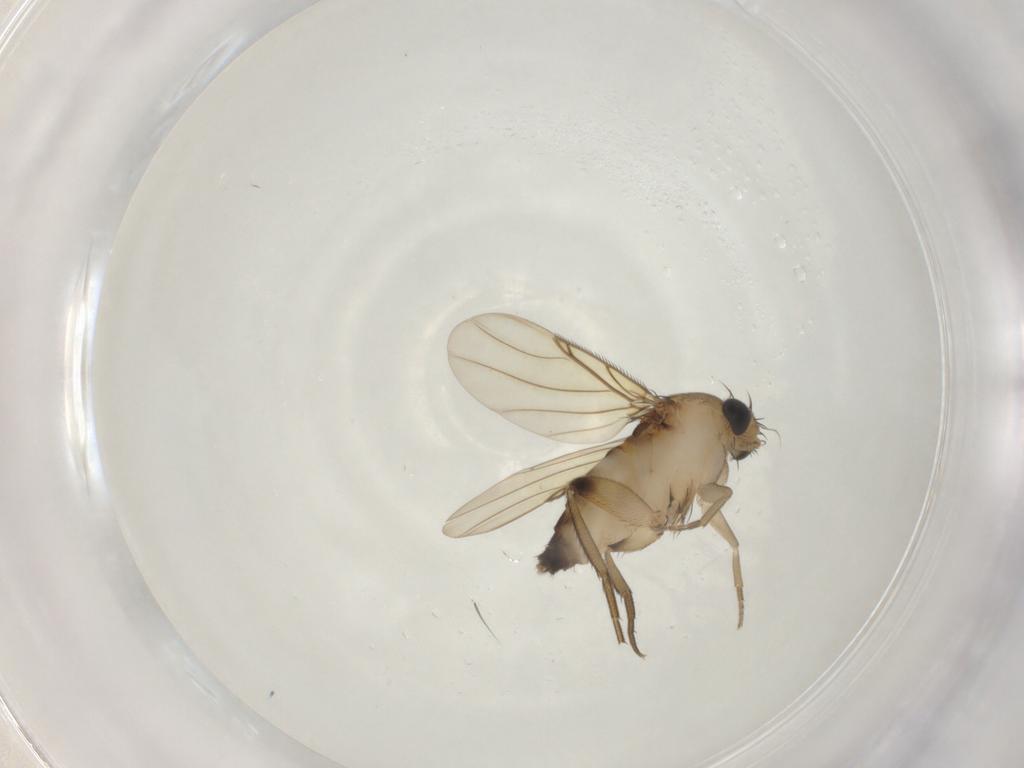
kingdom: Animalia
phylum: Arthropoda
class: Insecta
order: Diptera
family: Phoridae
